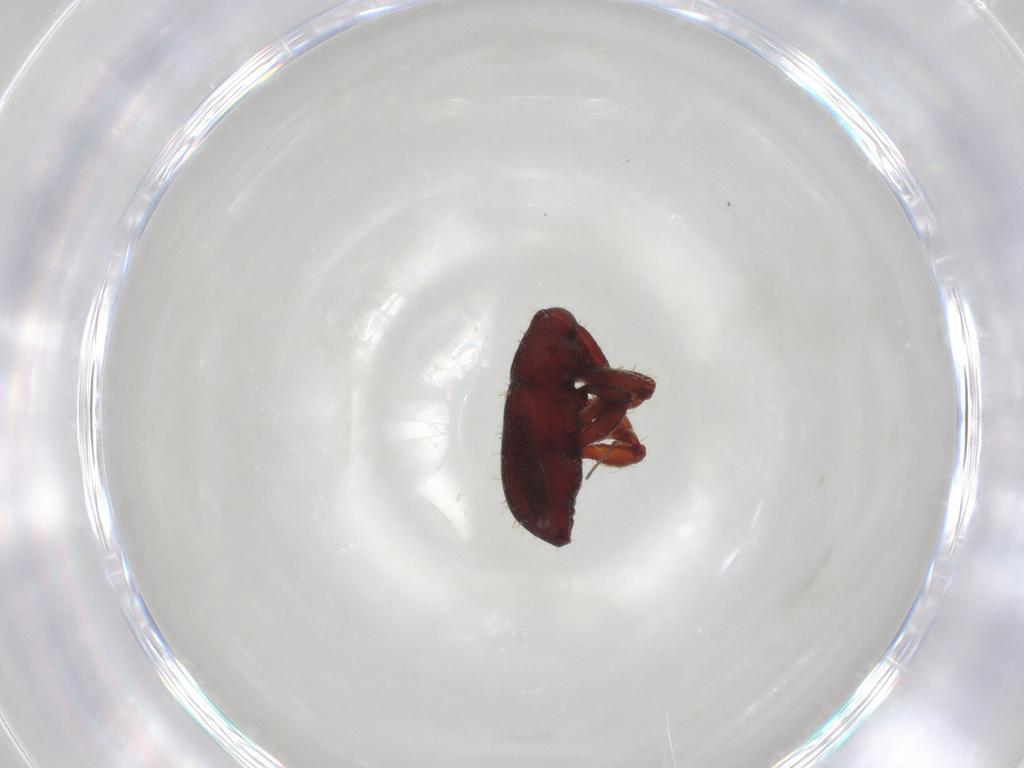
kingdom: Animalia
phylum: Arthropoda
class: Insecta
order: Coleoptera
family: Curculionidae
